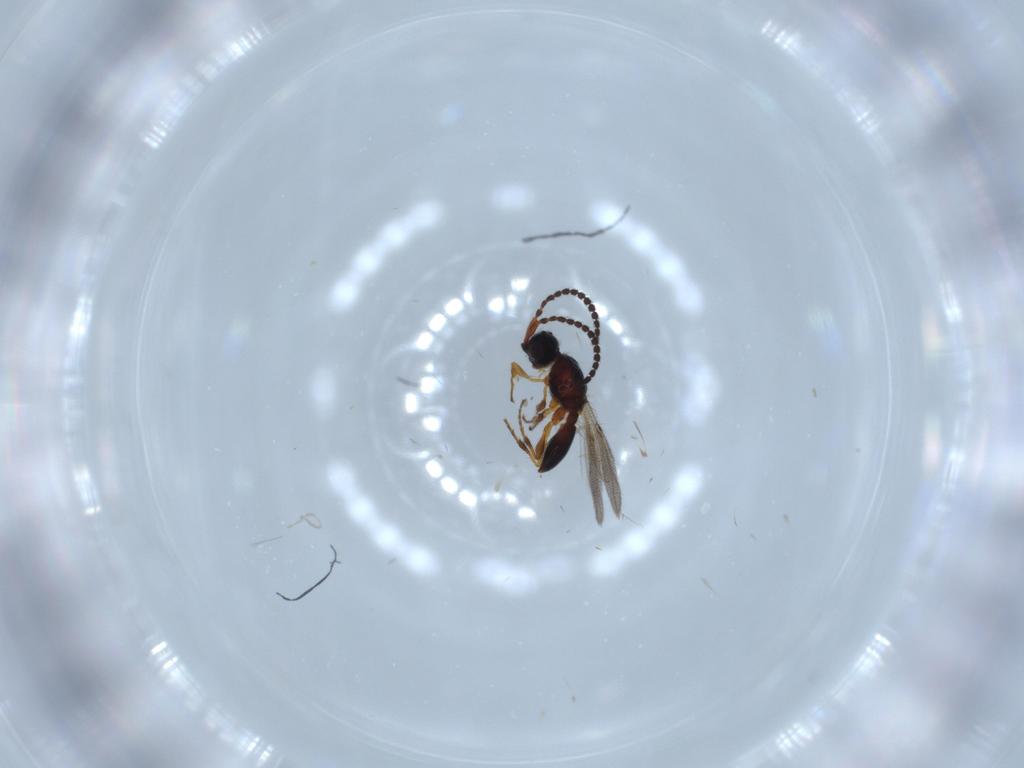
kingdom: Animalia
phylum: Arthropoda
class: Insecta
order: Hymenoptera
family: Diapriidae
